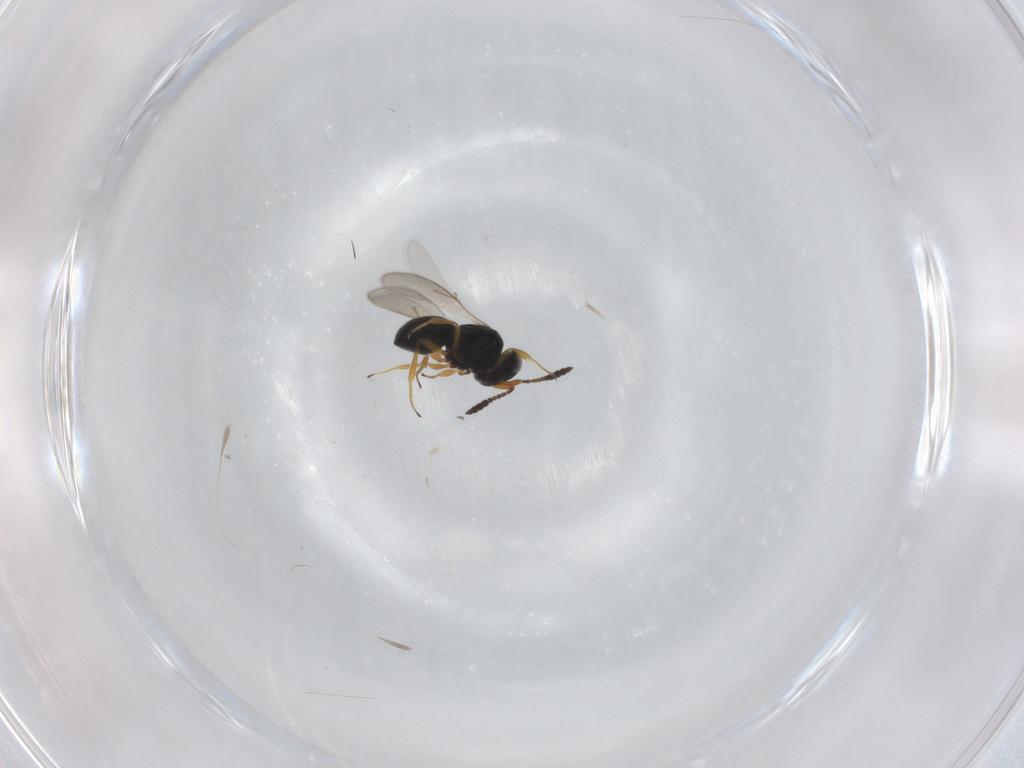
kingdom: Animalia
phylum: Arthropoda
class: Insecta
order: Hymenoptera
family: Scelionidae
